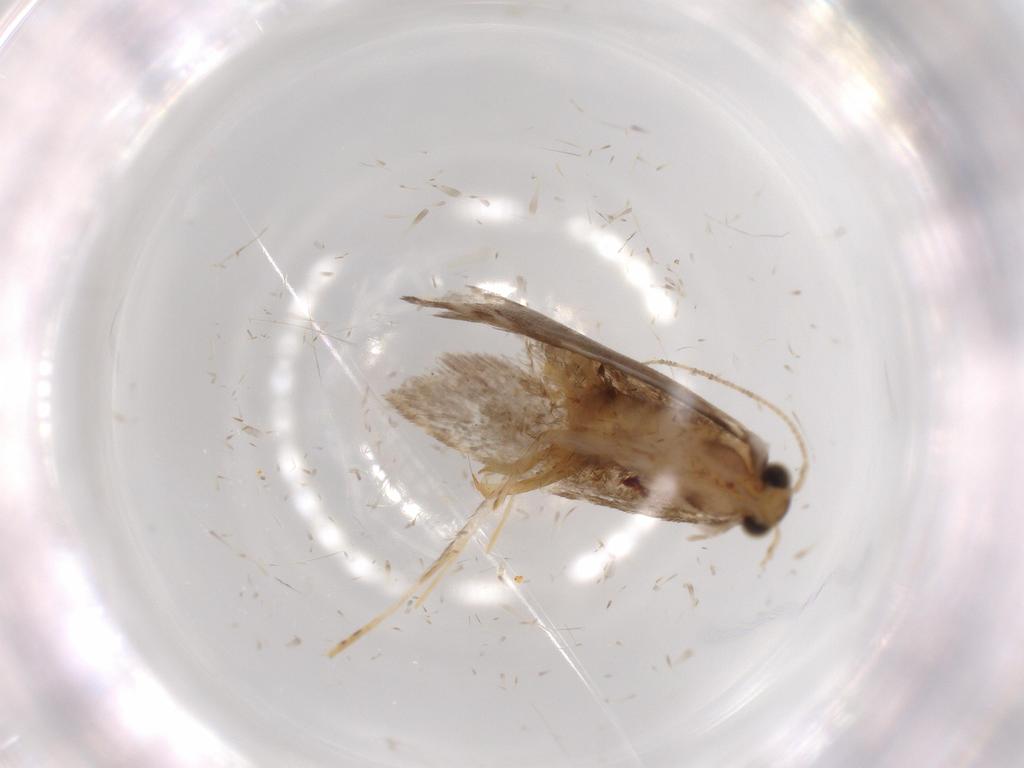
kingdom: Animalia
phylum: Arthropoda
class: Insecta
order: Lepidoptera
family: Tineidae
